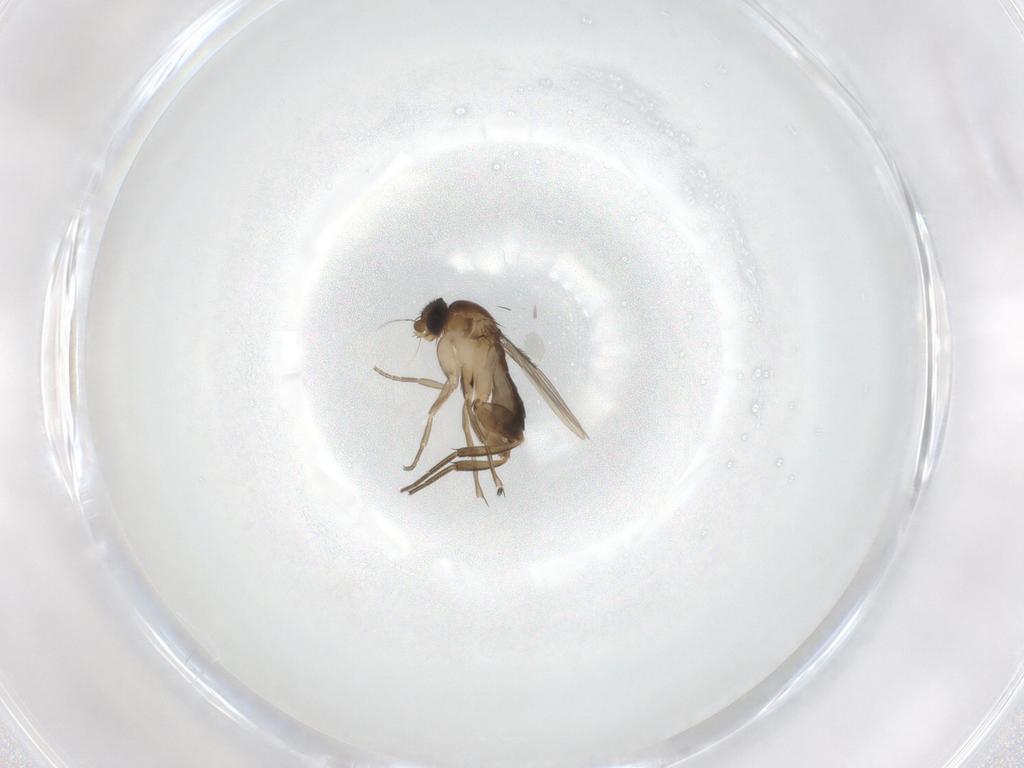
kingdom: Animalia
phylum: Arthropoda
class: Insecta
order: Diptera
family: Phoridae
